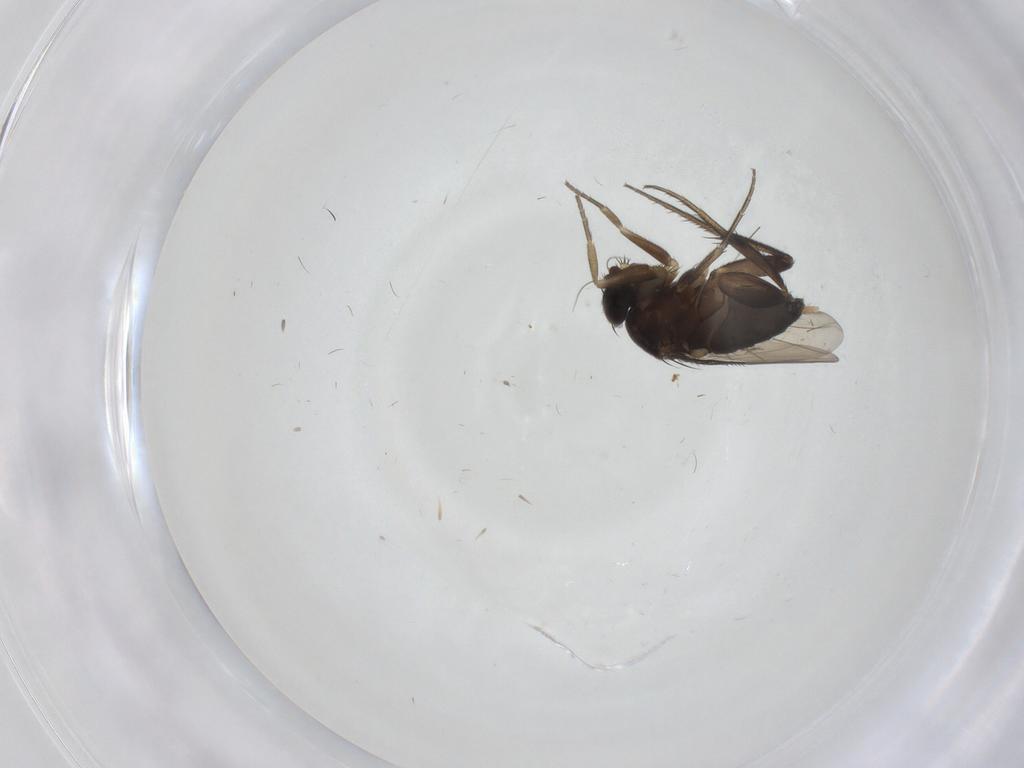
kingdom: Animalia
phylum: Arthropoda
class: Insecta
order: Diptera
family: Phoridae
